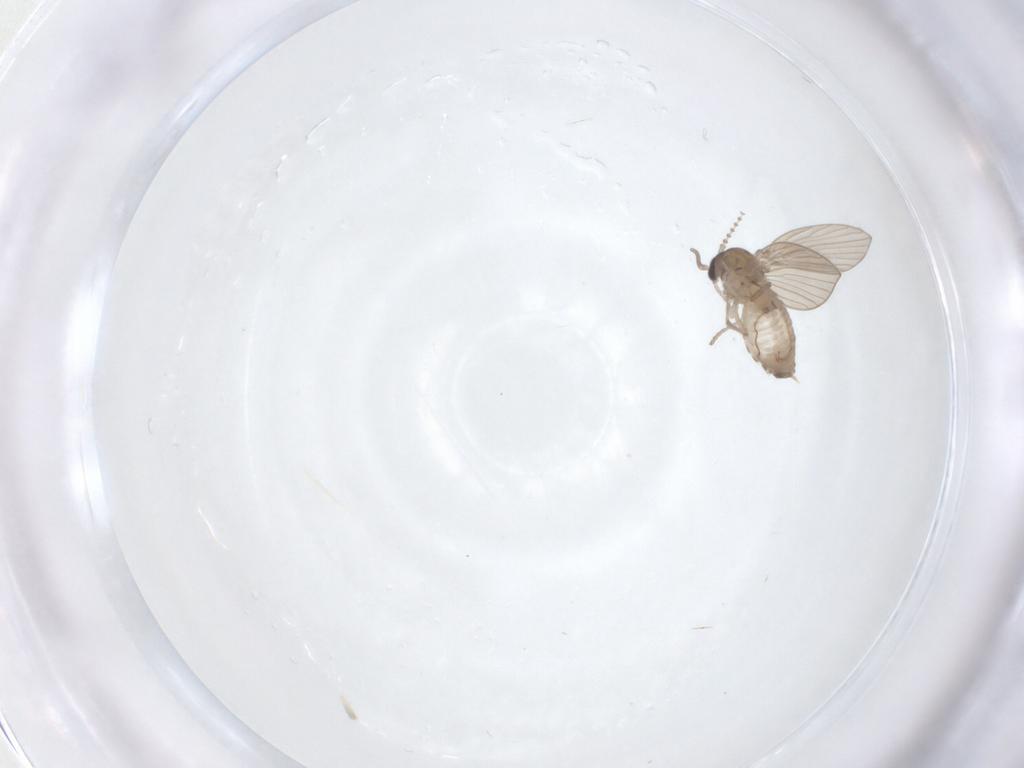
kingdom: Animalia
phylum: Arthropoda
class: Insecta
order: Diptera
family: Psychodidae
